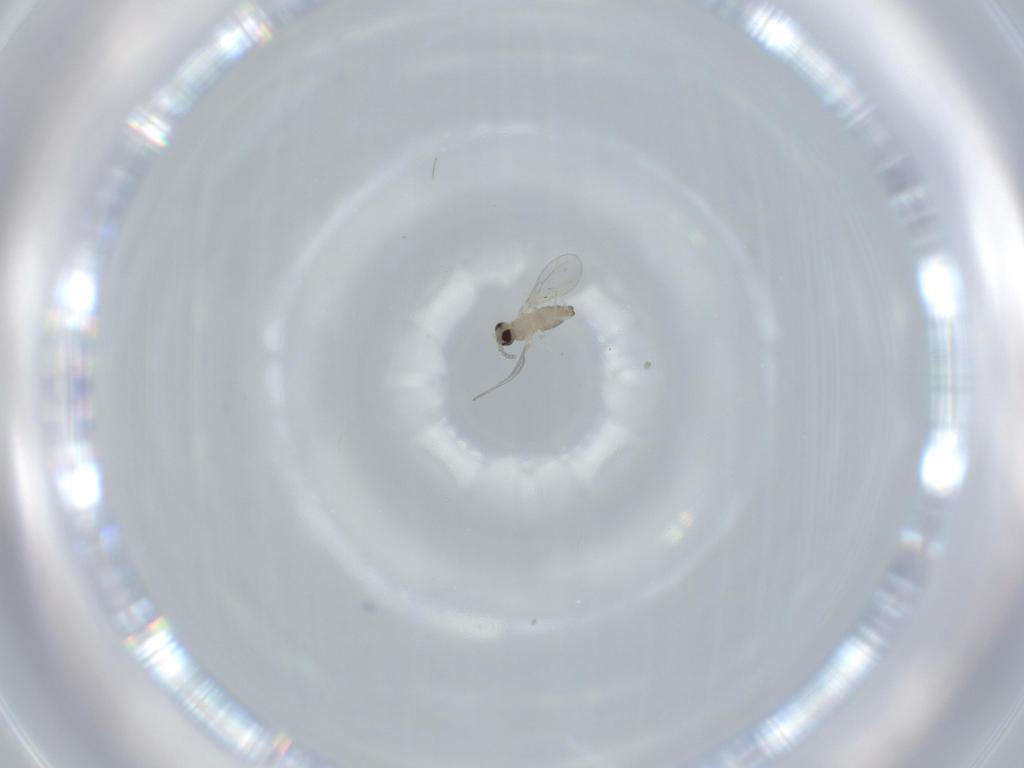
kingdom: Animalia
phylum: Arthropoda
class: Insecta
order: Diptera
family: Cecidomyiidae
